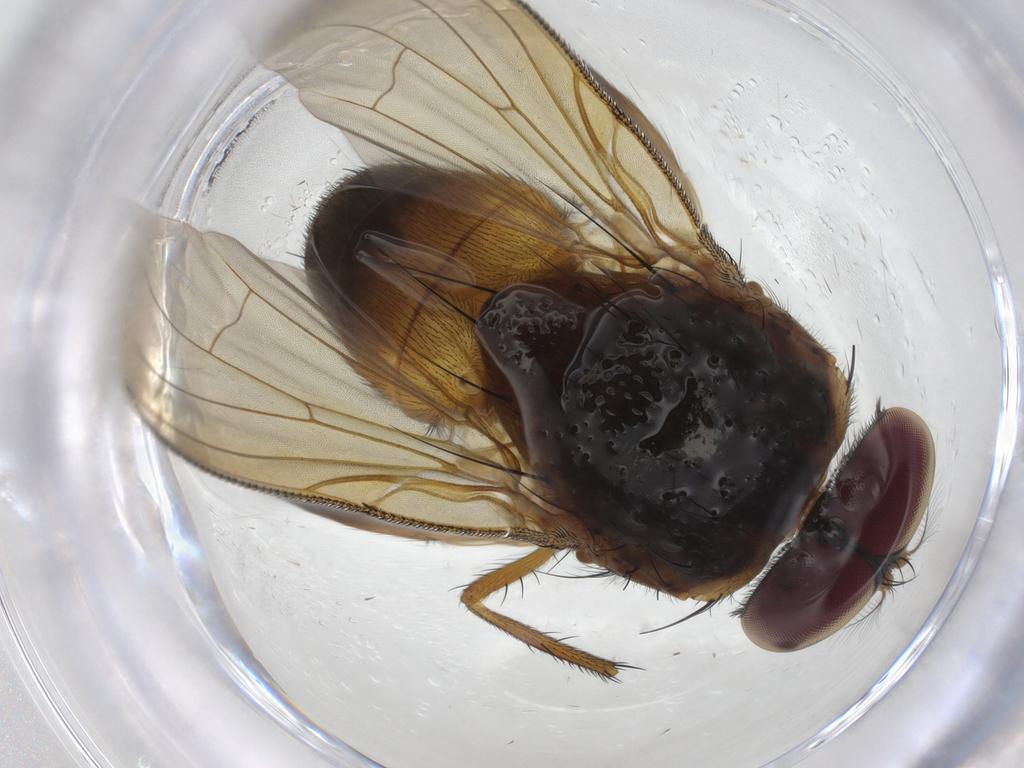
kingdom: Animalia
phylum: Arthropoda
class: Insecta
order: Diptera
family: Muscidae
